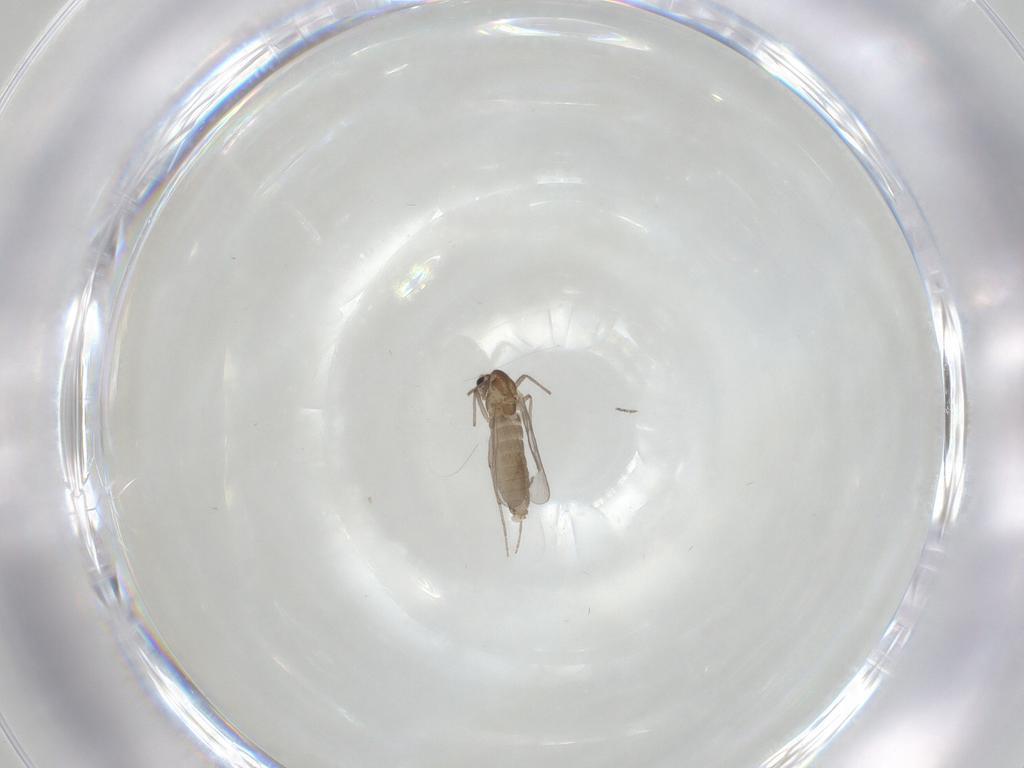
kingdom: Animalia
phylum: Arthropoda
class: Insecta
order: Diptera
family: Chironomidae
